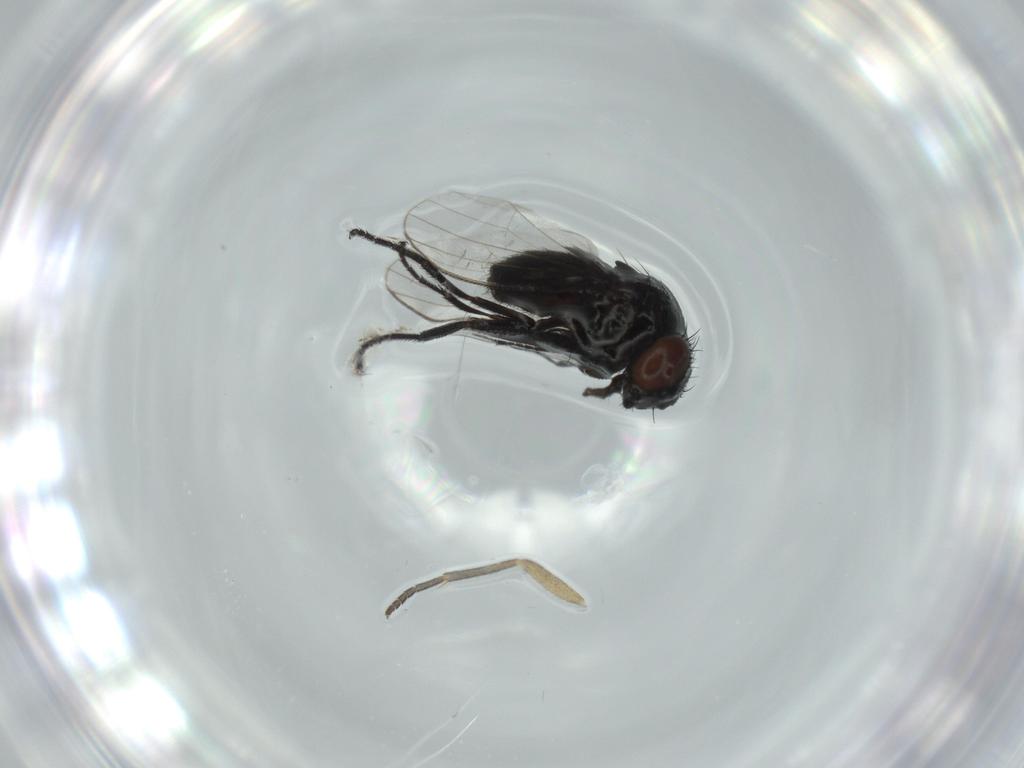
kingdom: Animalia
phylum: Arthropoda
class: Insecta
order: Diptera
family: Milichiidae
